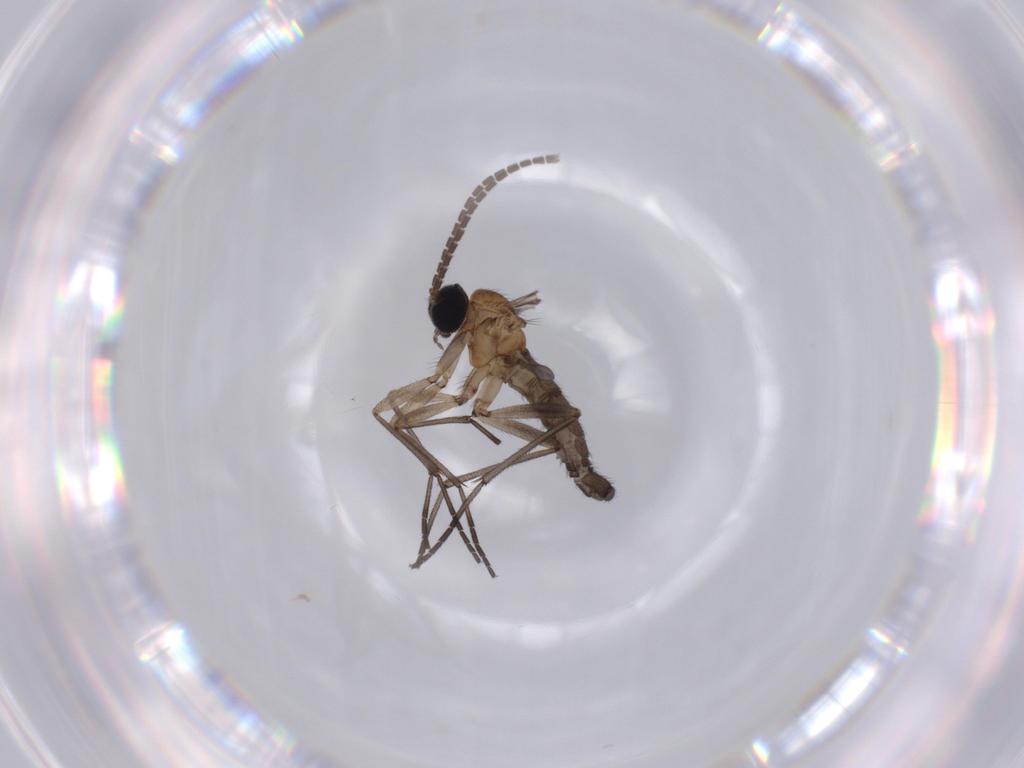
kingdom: Animalia
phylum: Arthropoda
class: Insecta
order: Diptera
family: Sciaridae
